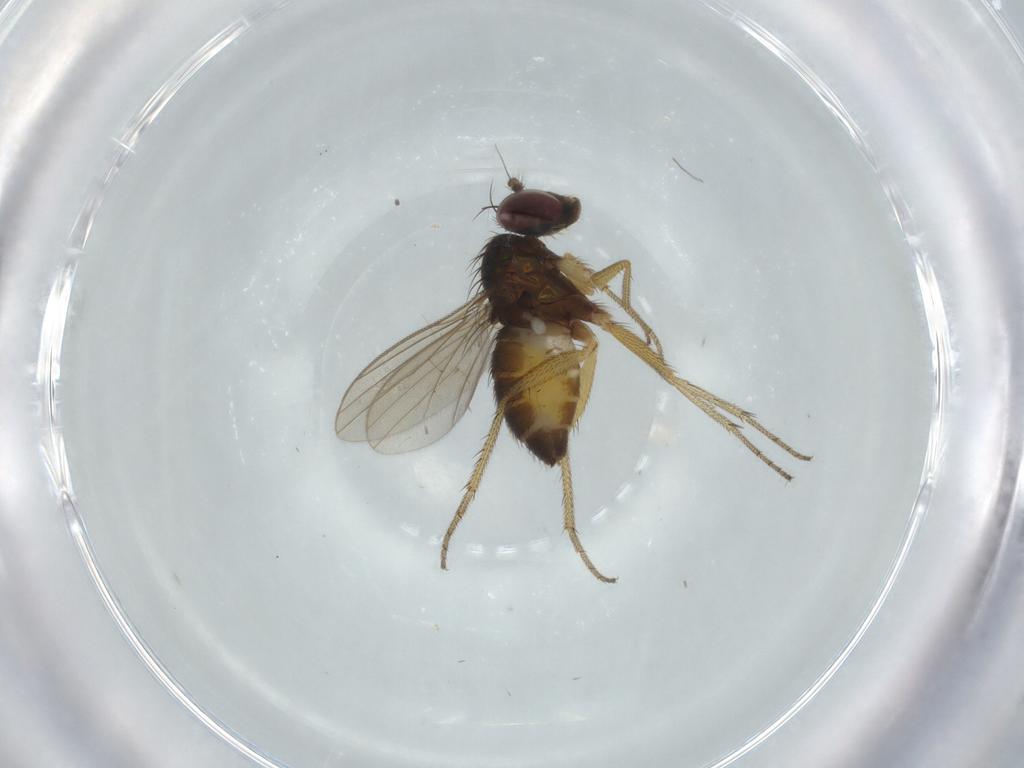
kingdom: Animalia
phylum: Arthropoda
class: Insecta
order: Diptera
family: Dolichopodidae
